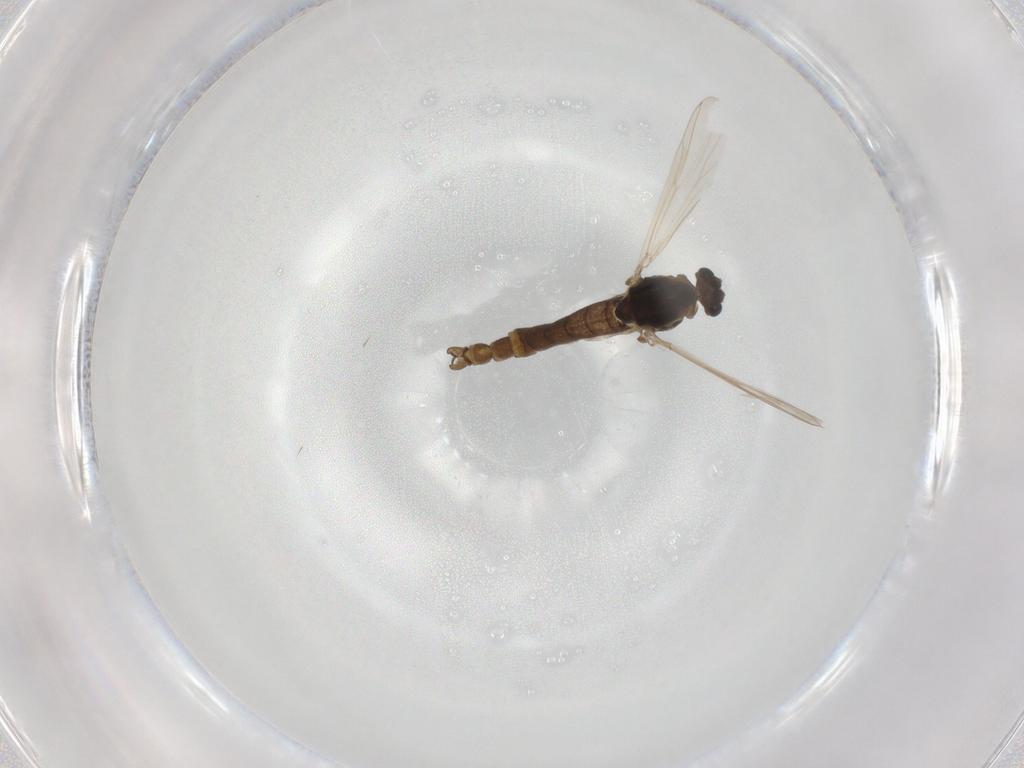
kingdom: Animalia
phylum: Arthropoda
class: Insecta
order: Diptera
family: Chironomidae
